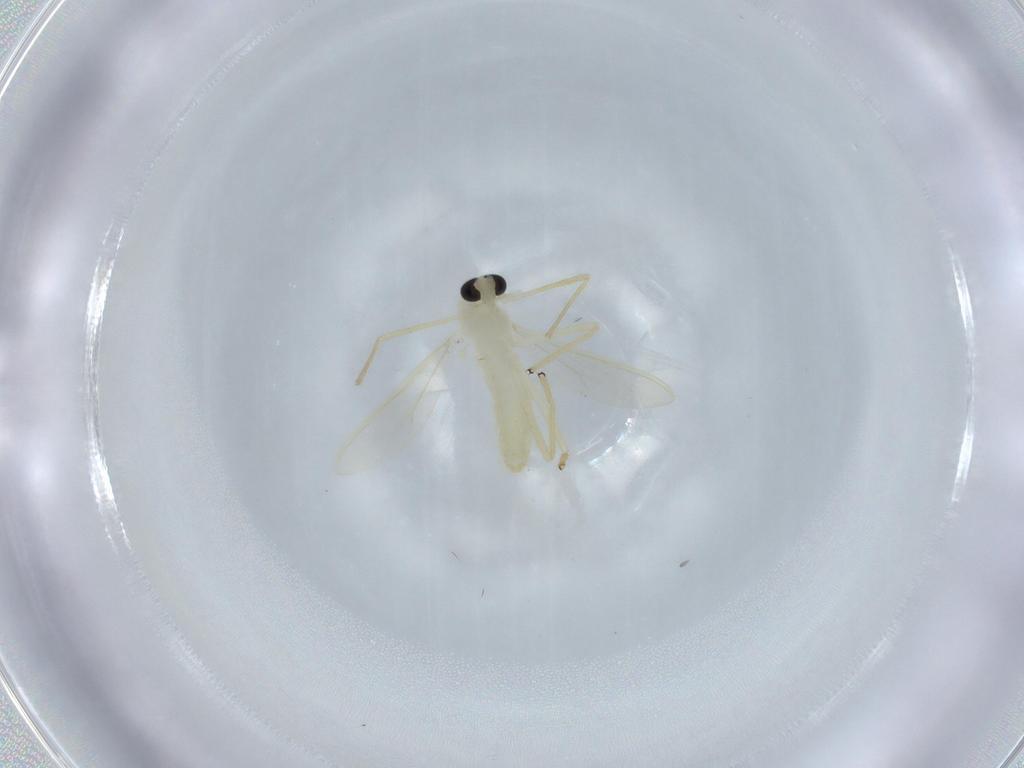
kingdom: Animalia
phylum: Arthropoda
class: Insecta
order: Diptera
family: Chironomidae
